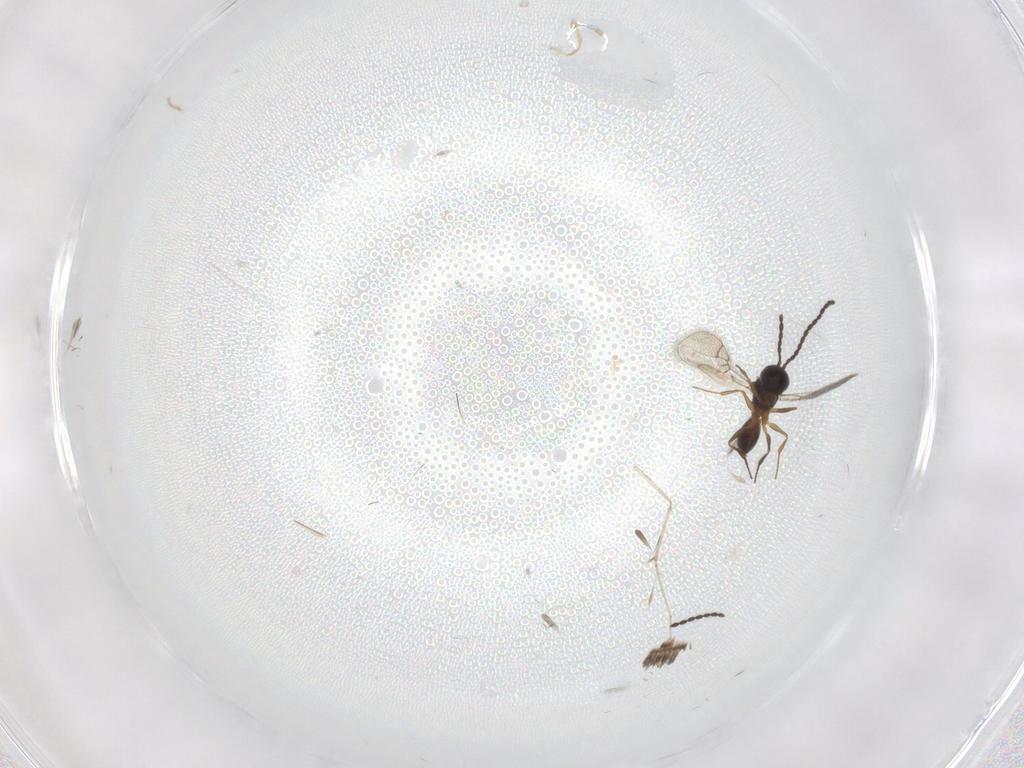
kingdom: Animalia
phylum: Arthropoda
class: Insecta
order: Hymenoptera
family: Figitidae
